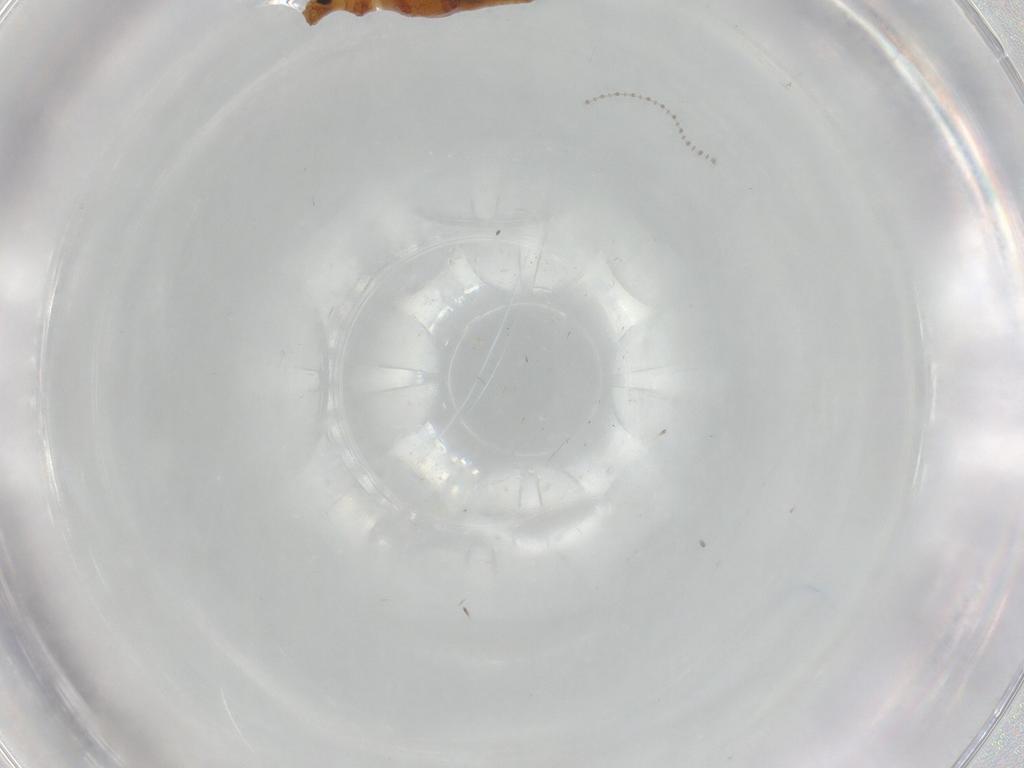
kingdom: Animalia
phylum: Arthropoda
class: Insecta
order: Coleoptera
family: Latridiidae
